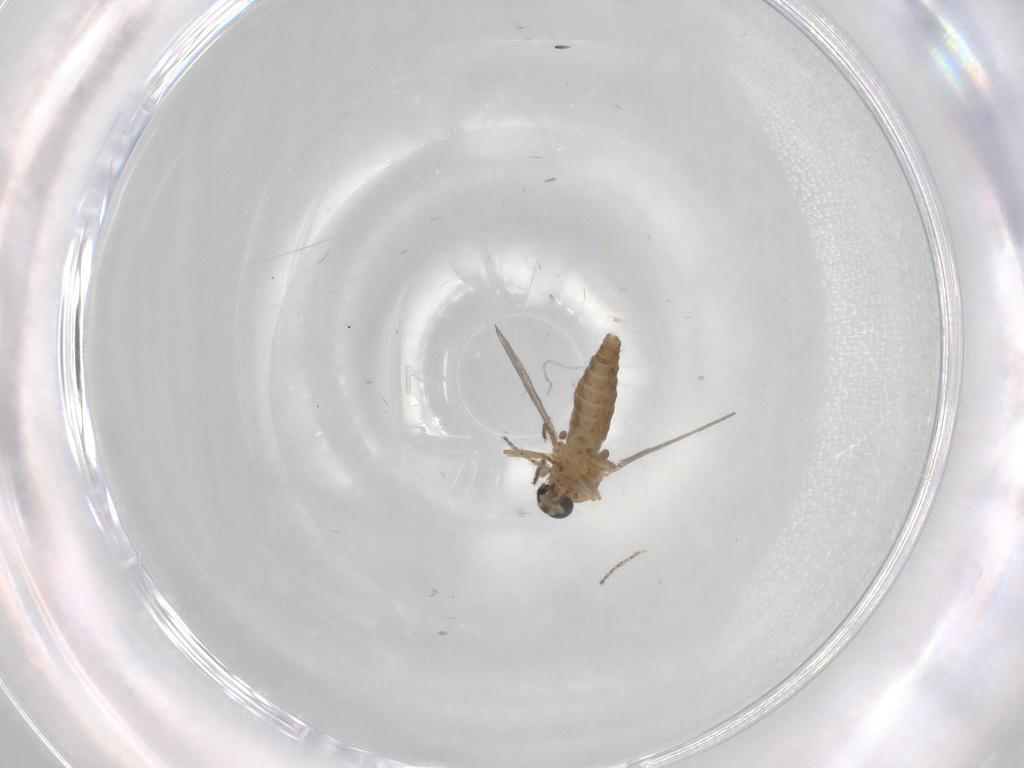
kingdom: Animalia
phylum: Arthropoda
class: Insecta
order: Diptera
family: Ceratopogonidae
